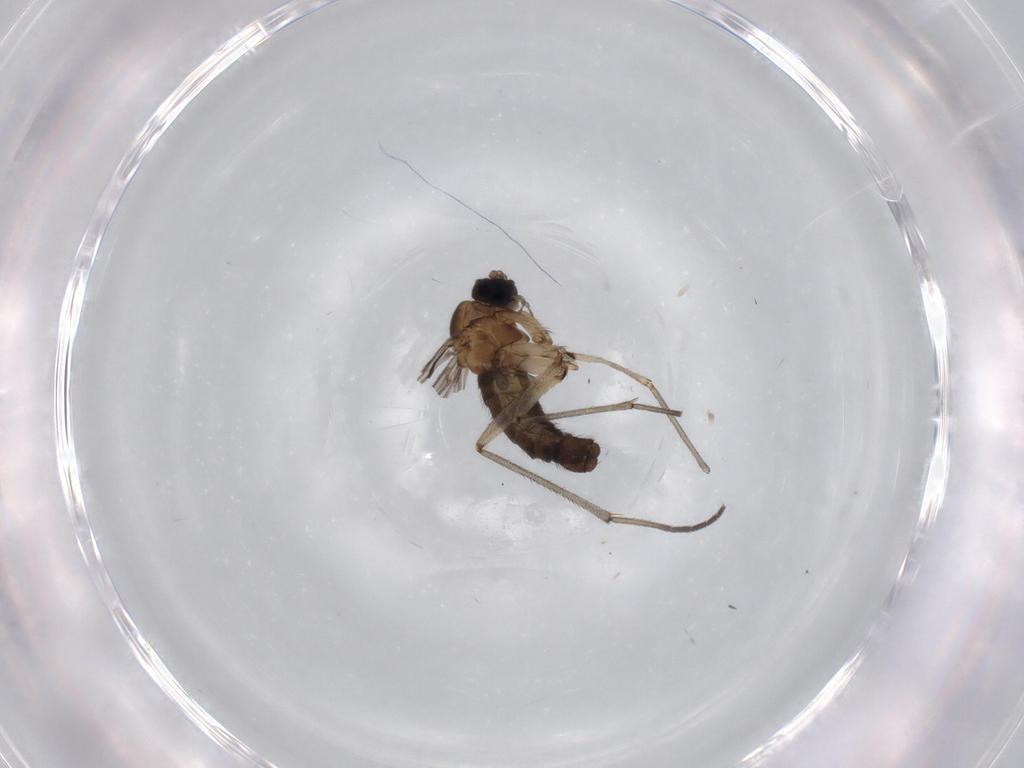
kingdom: Animalia
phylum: Arthropoda
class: Insecta
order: Diptera
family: Sciaridae
